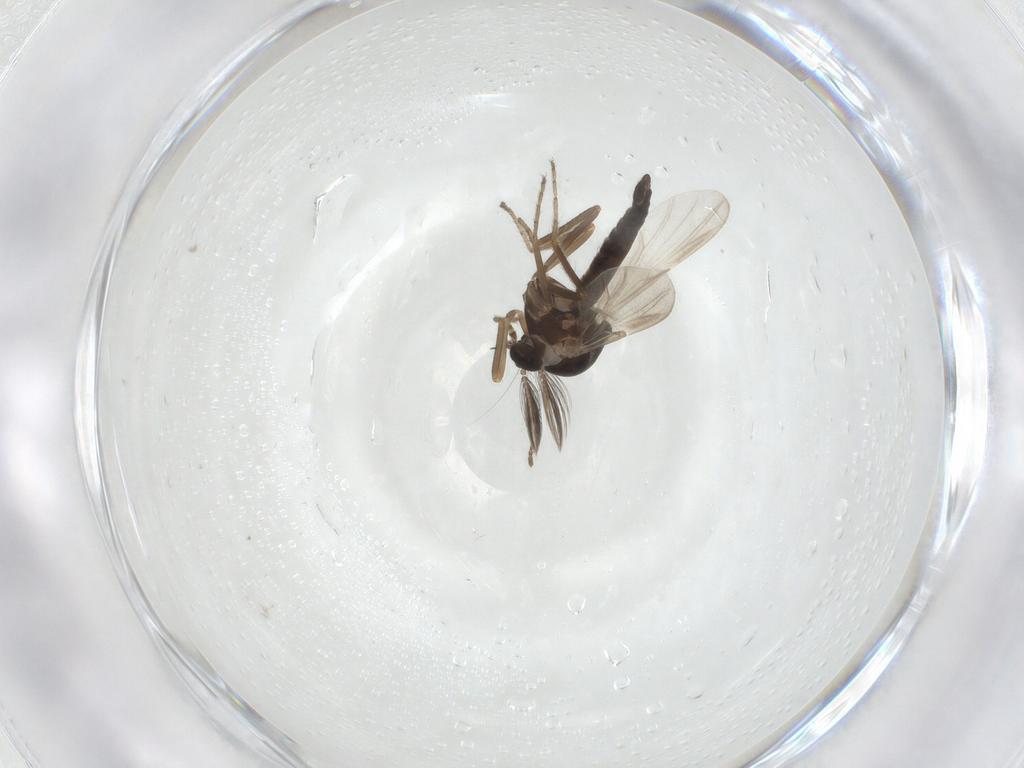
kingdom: Animalia
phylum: Arthropoda
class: Insecta
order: Diptera
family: Ceratopogonidae
